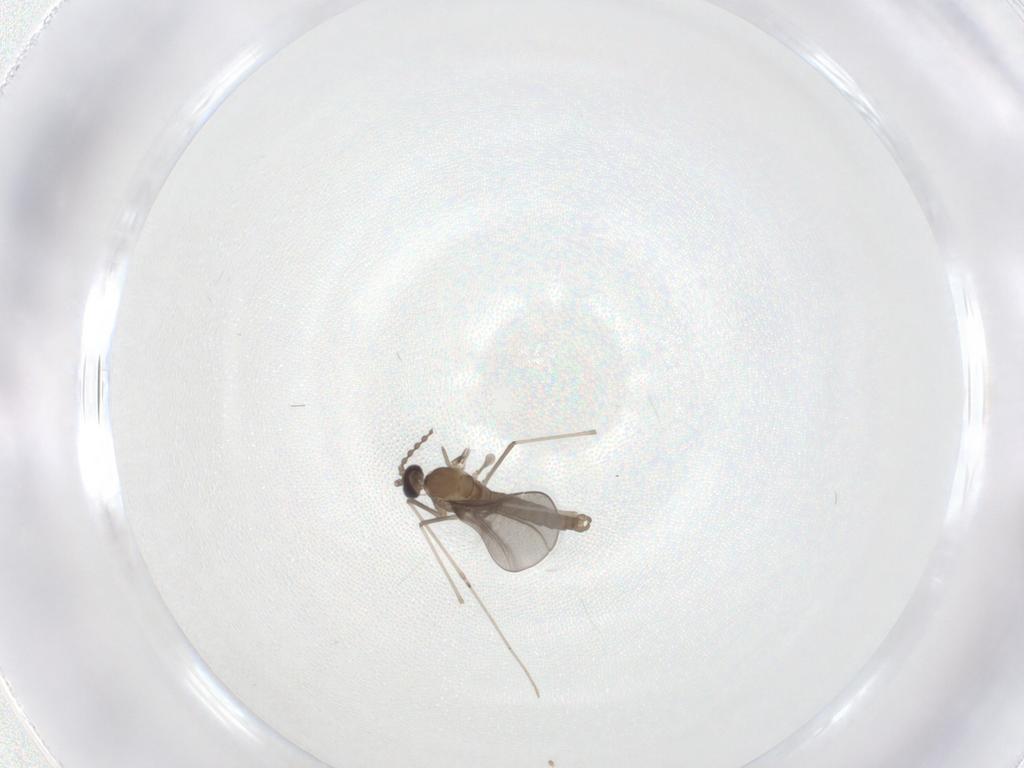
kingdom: Animalia
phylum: Arthropoda
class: Insecta
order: Diptera
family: Cecidomyiidae
